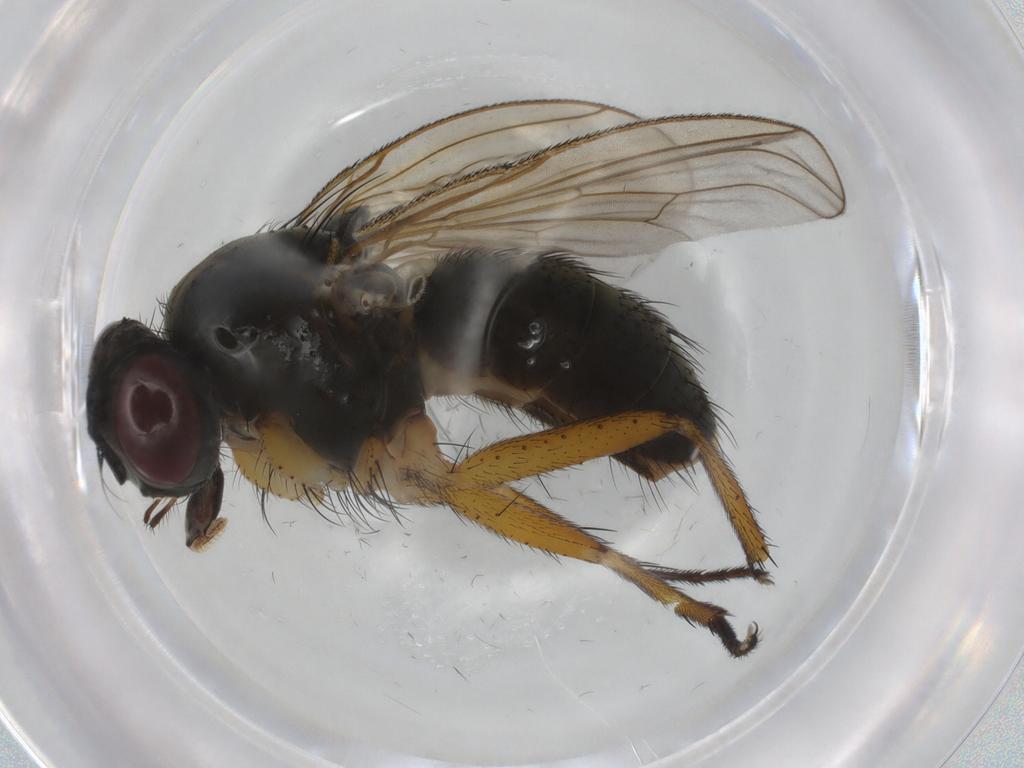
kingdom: Animalia
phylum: Arthropoda
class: Insecta
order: Diptera
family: Muscidae
